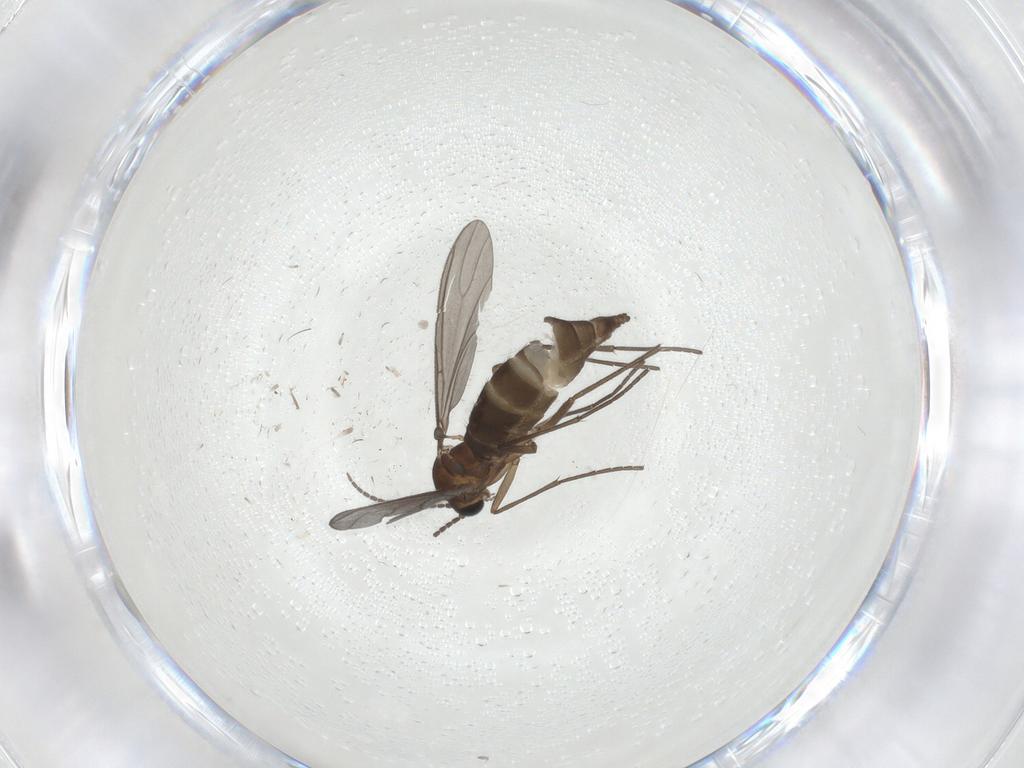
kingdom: Animalia
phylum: Arthropoda
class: Insecta
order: Diptera
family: Sciaridae
